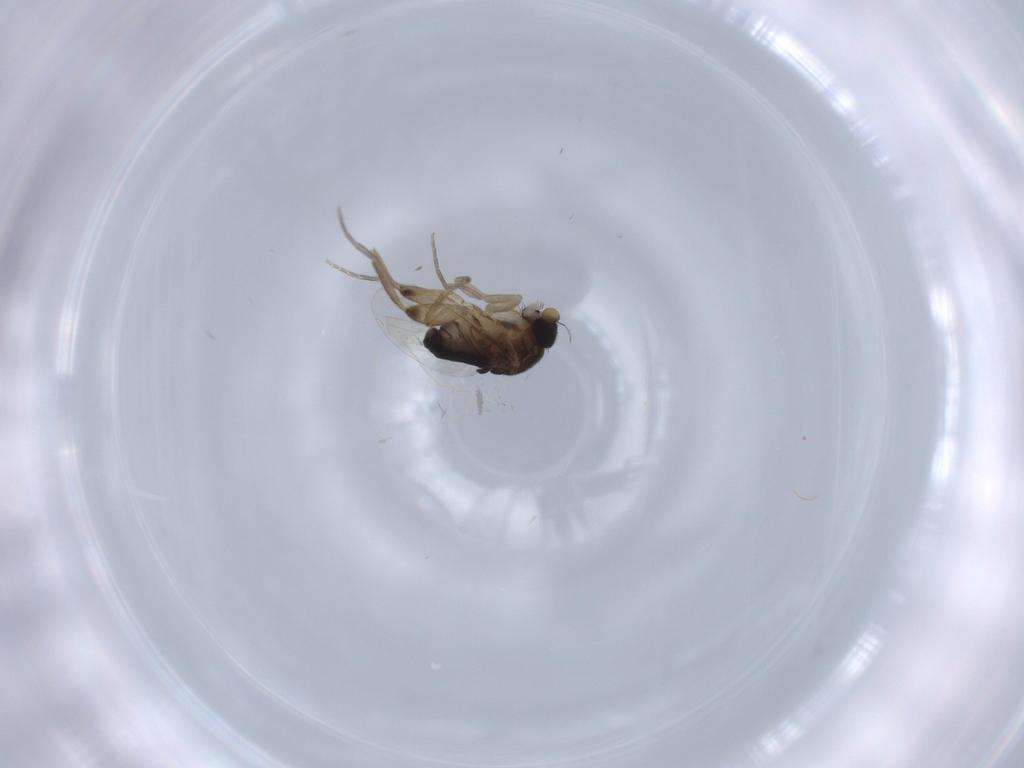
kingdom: Animalia
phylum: Arthropoda
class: Insecta
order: Diptera
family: Phoridae
